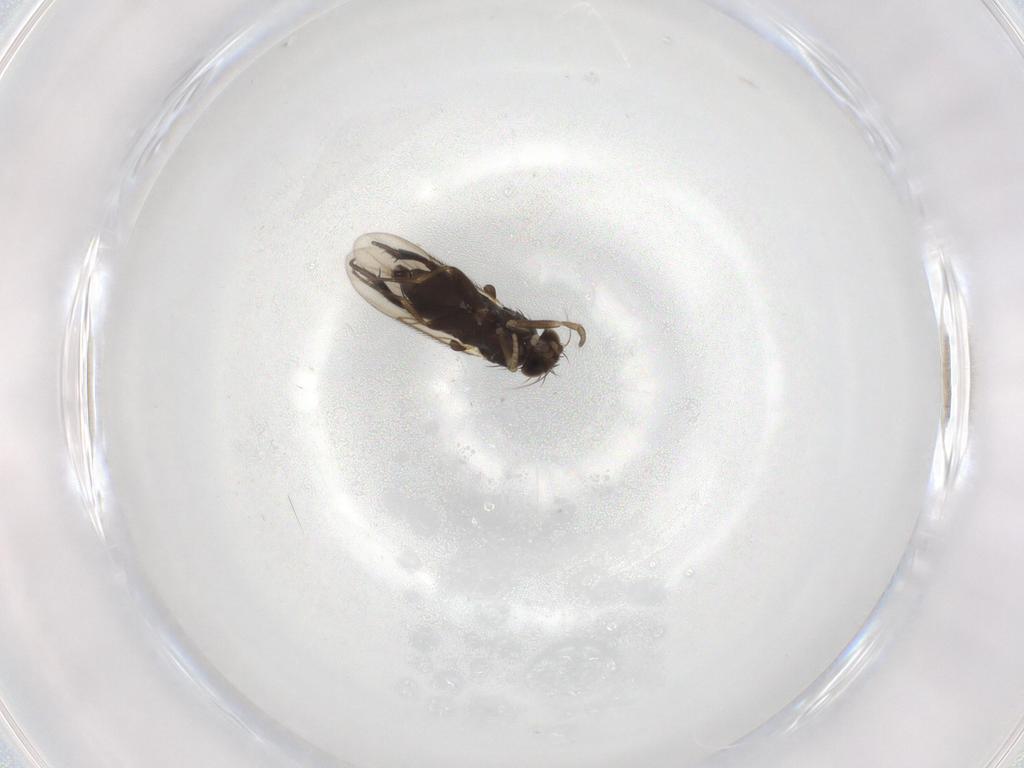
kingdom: Animalia
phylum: Arthropoda
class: Insecta
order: Diptera
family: Phoridae
